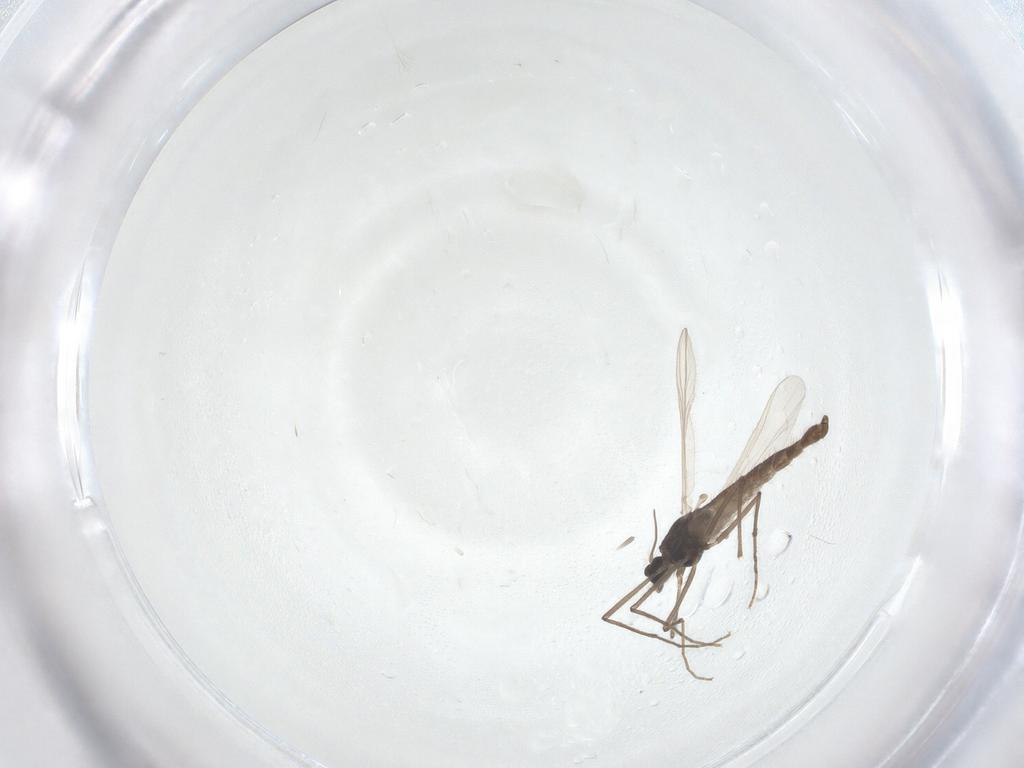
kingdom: Animalia
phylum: Arthropoda
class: Insecta
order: Diptera
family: Chironomidae
